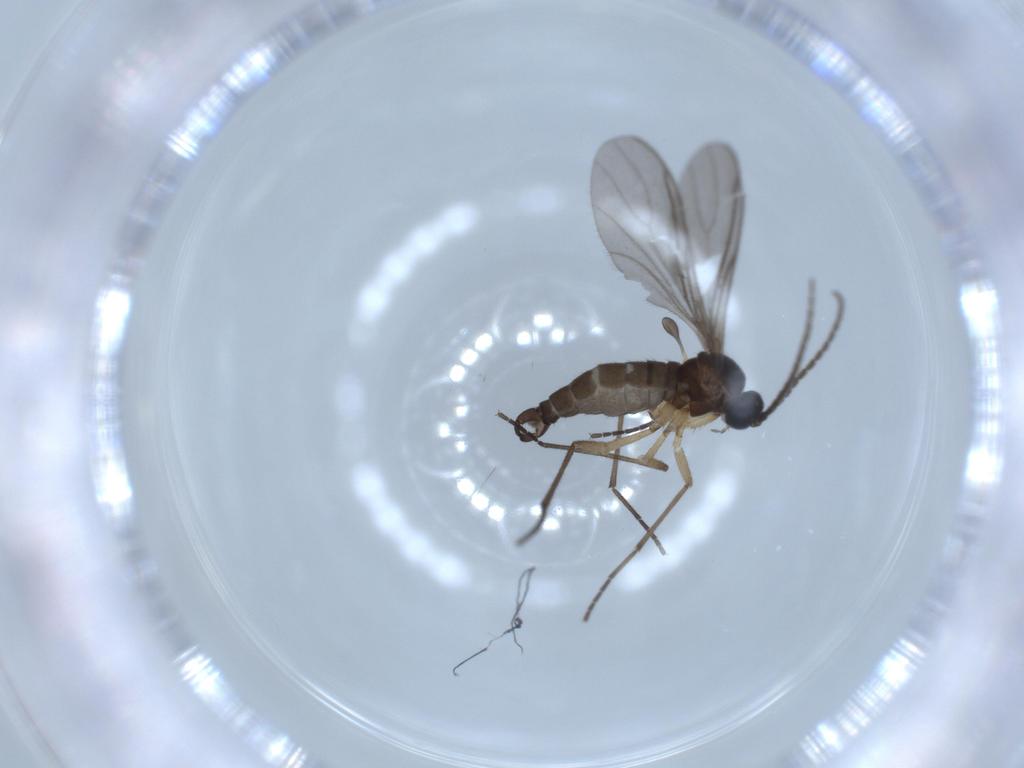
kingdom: Animalia
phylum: Arthropoda
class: Insecta
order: Diptera
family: Sciaridae
